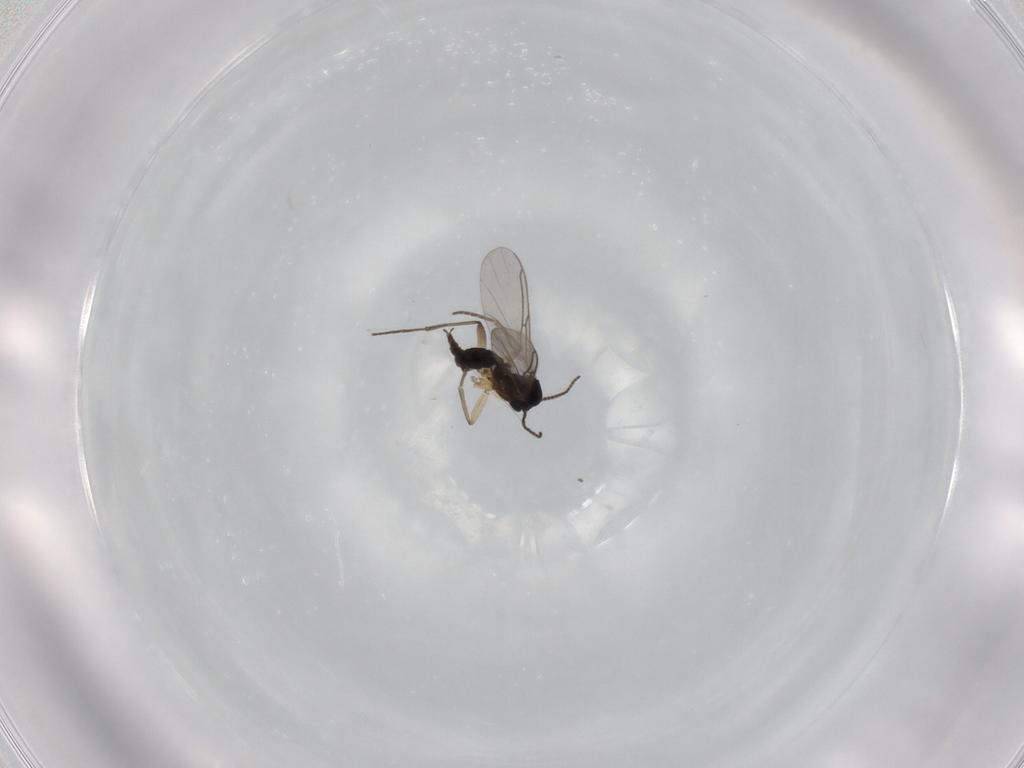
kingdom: Animalia
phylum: Arthropoda
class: Insecta
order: Diptera
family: Sciaridae
